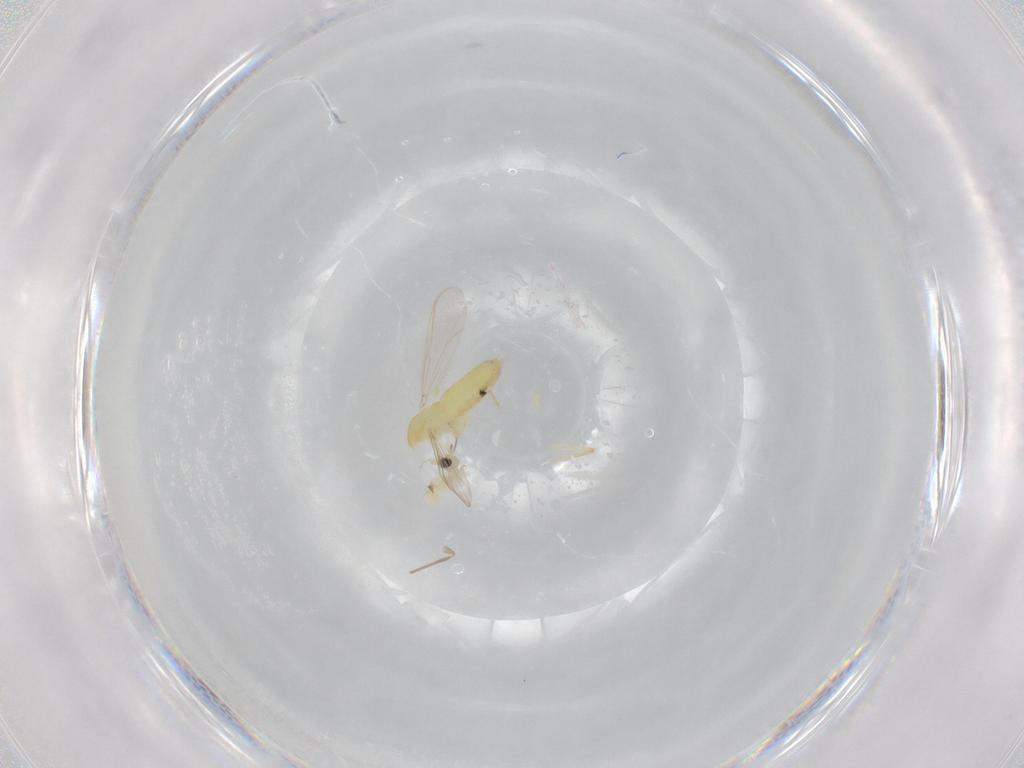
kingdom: Animalia
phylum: Arthropoda
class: Insecta
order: Diptera
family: Chironomidae
